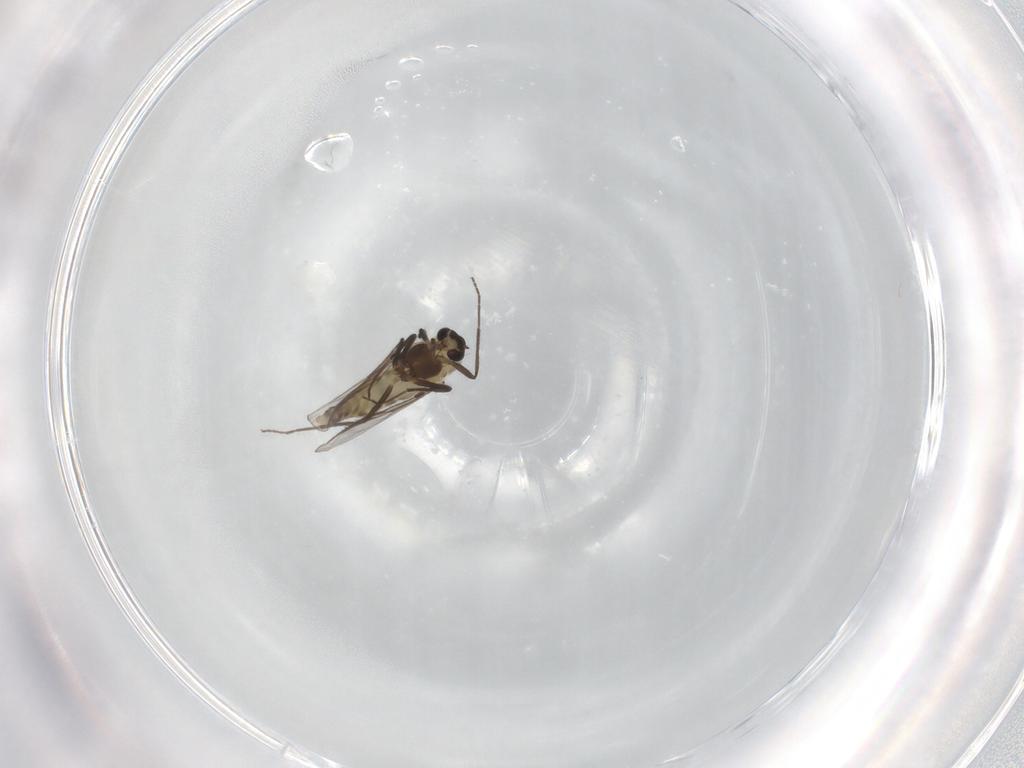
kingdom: Animalia
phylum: Arthropoda
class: Insecta
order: Diptera
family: Chironomidae
